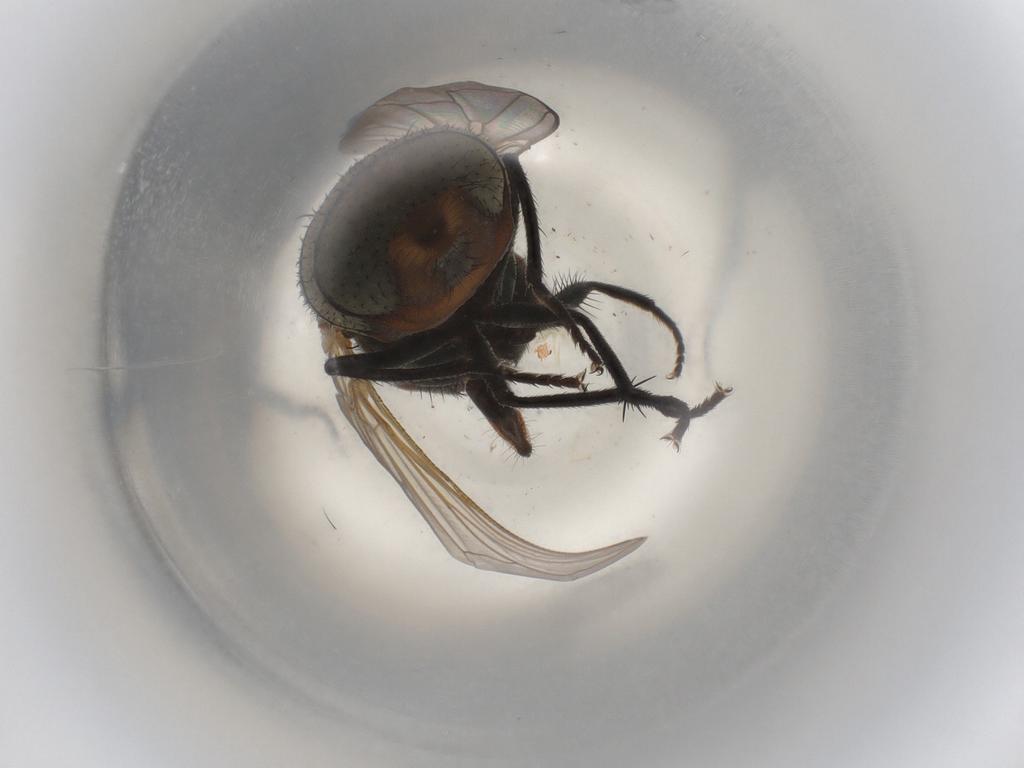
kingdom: Animalia
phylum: Arthropoda
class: Insecta
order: Diptera
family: Muscidae
